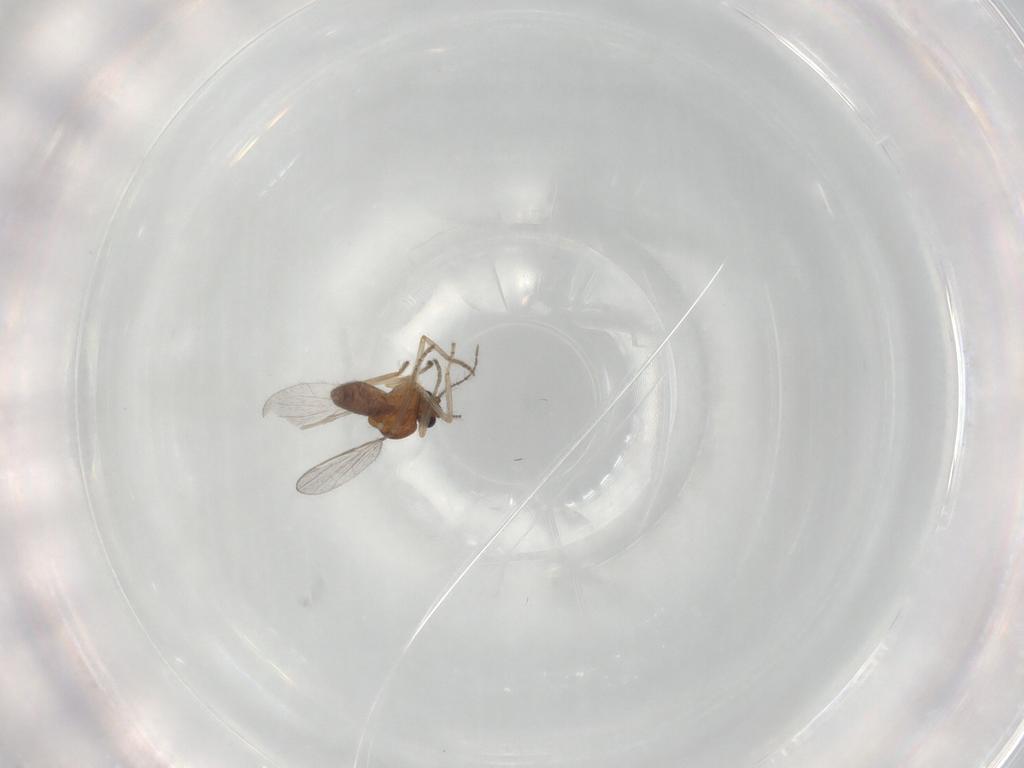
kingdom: Animalia
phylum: Arthropoda
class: Insecta
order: Diptera
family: Ceratopogonidae
